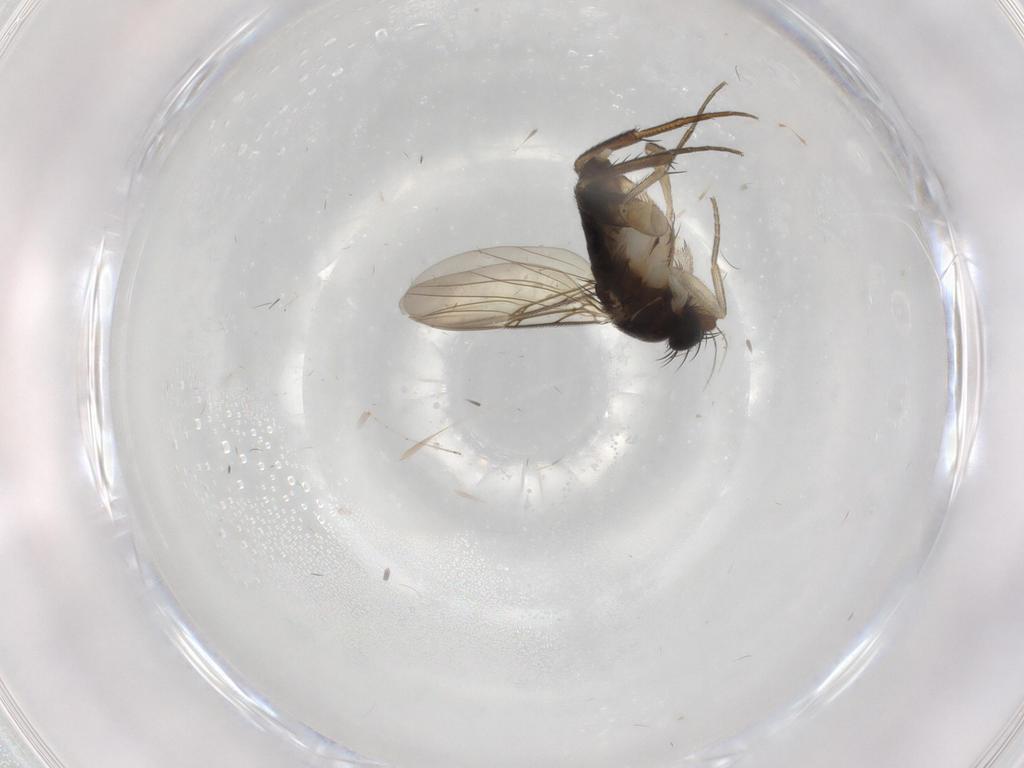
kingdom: Animalia
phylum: Arthropoda
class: Insecta
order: Diptera
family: Phoridae
